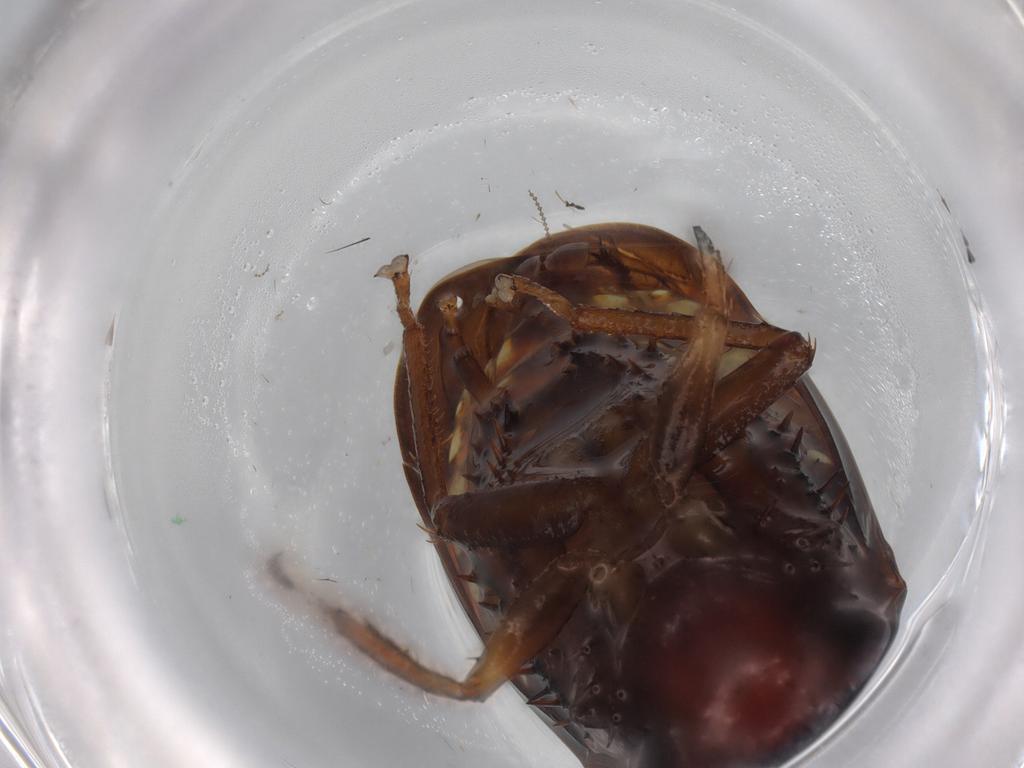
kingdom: Animalia
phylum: Arthropoda
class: Insecta
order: Hemiptera
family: Cicadellidae
